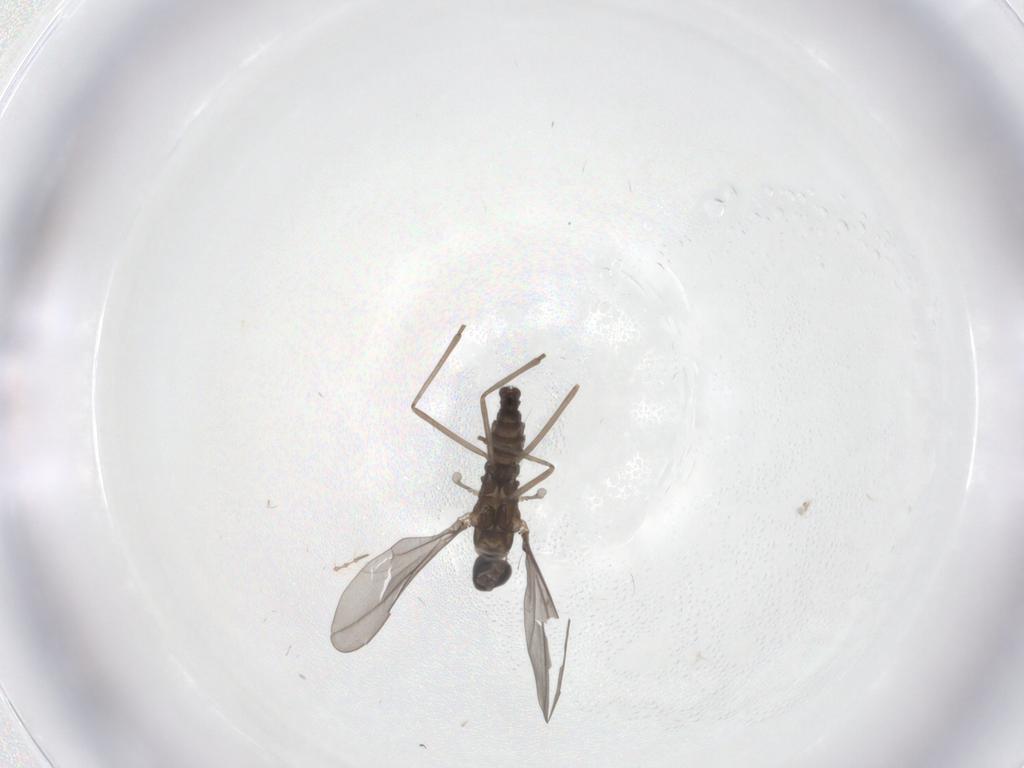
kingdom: Animalia
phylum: Arthropoda
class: Insecta
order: Diptera
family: Cecidomyiidae
